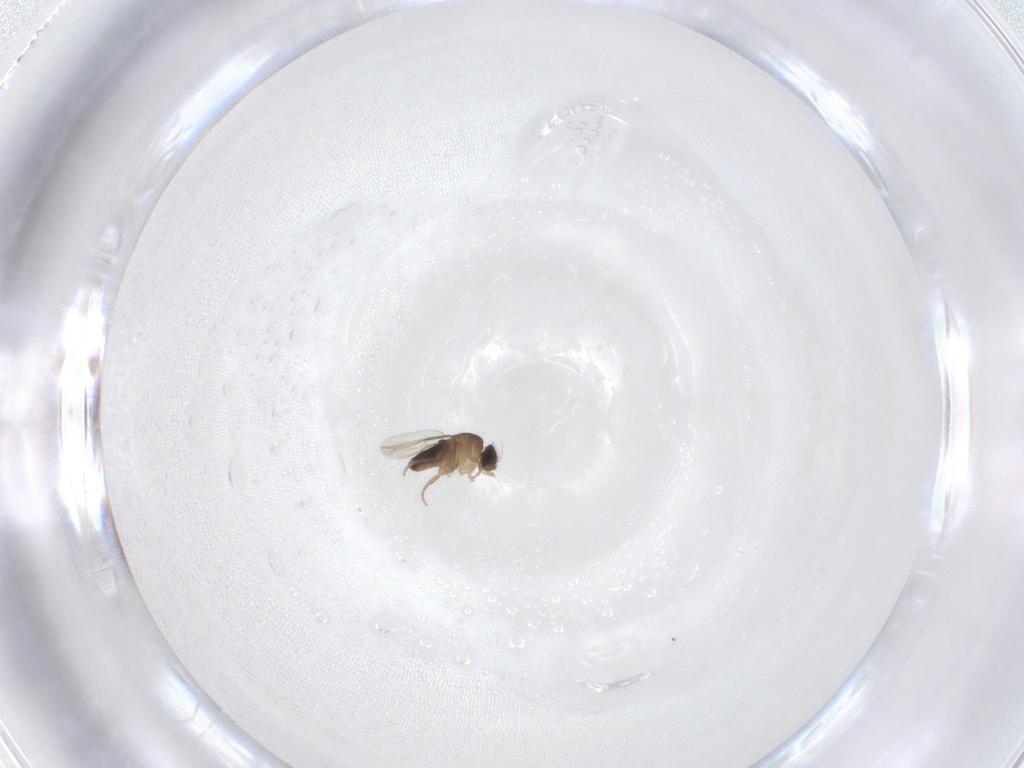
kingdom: Animalia
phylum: Arthropoda
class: Insecta
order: Diptera
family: Phoridae
